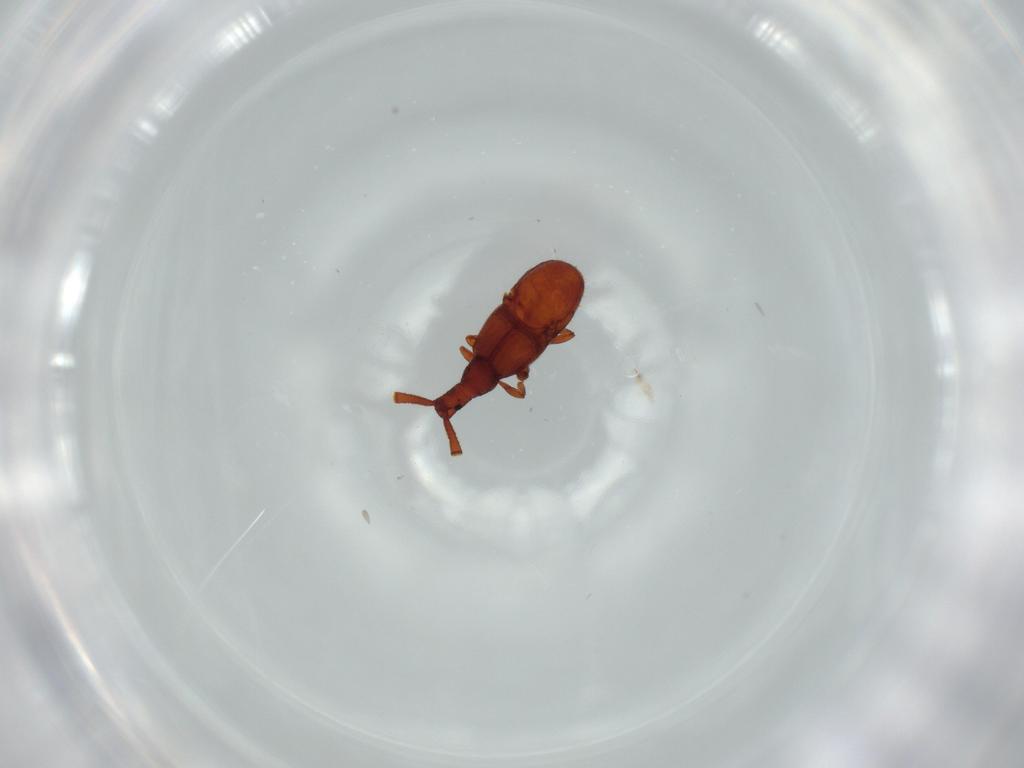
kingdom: Animalia
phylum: Arthropoda
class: Insecta
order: Coleoptera
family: Staphylinidae
